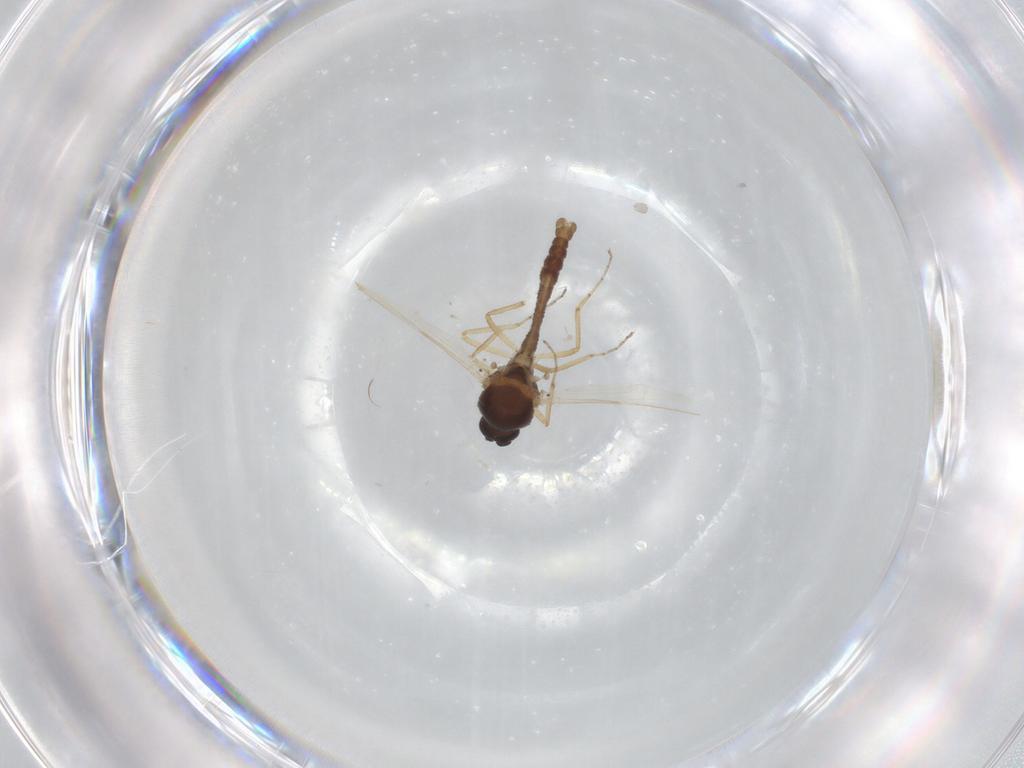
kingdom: Animalia
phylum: Arthropoda
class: Insecta
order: Diptera
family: Ceratopogonidae
